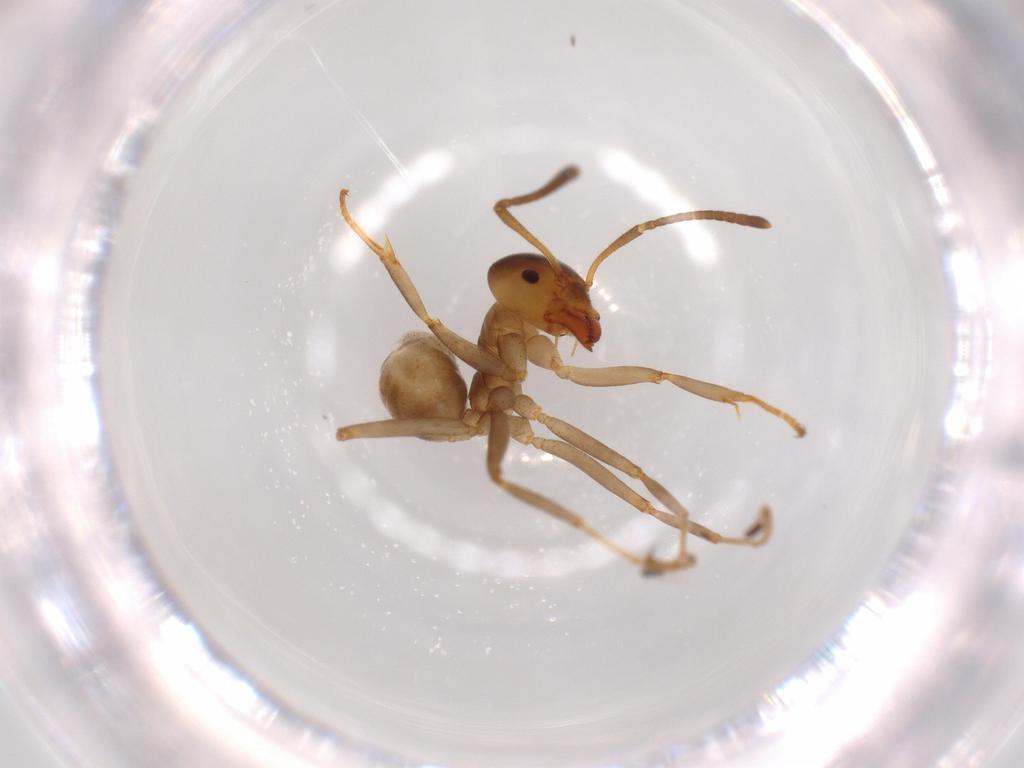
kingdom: Animalia
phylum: Arthropoda
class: Insecta
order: Hymenoptera
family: Formicidae
